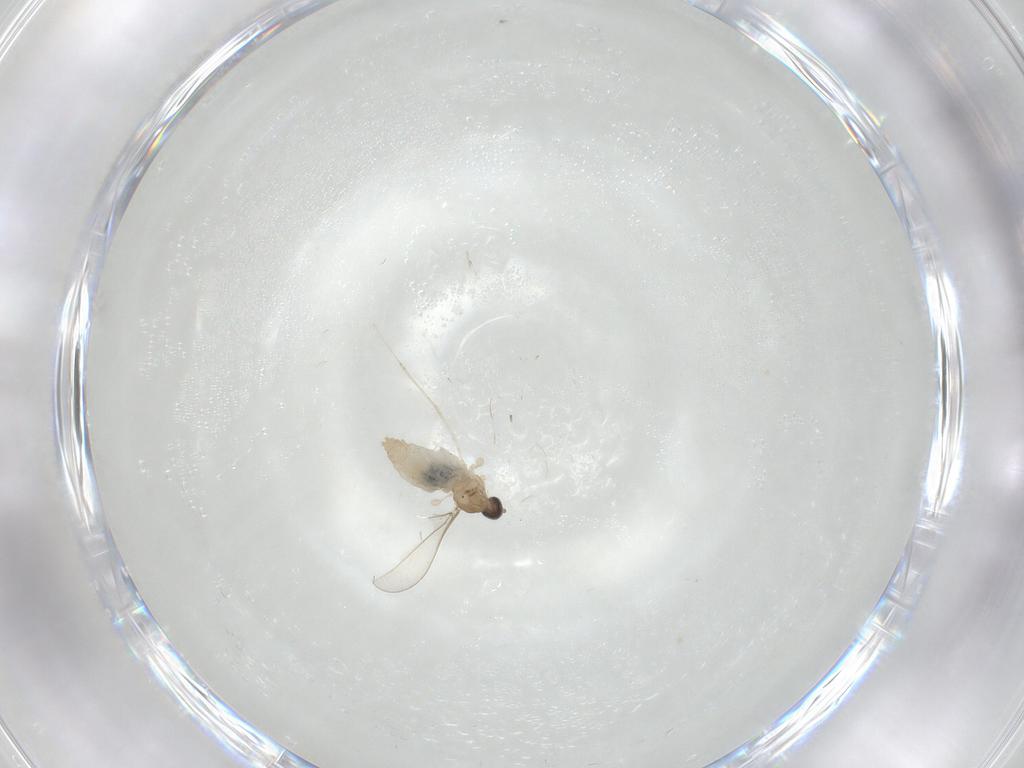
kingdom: Animalia
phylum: Arthropoda
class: Insecta
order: Diptera
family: Cecidomyiidae
